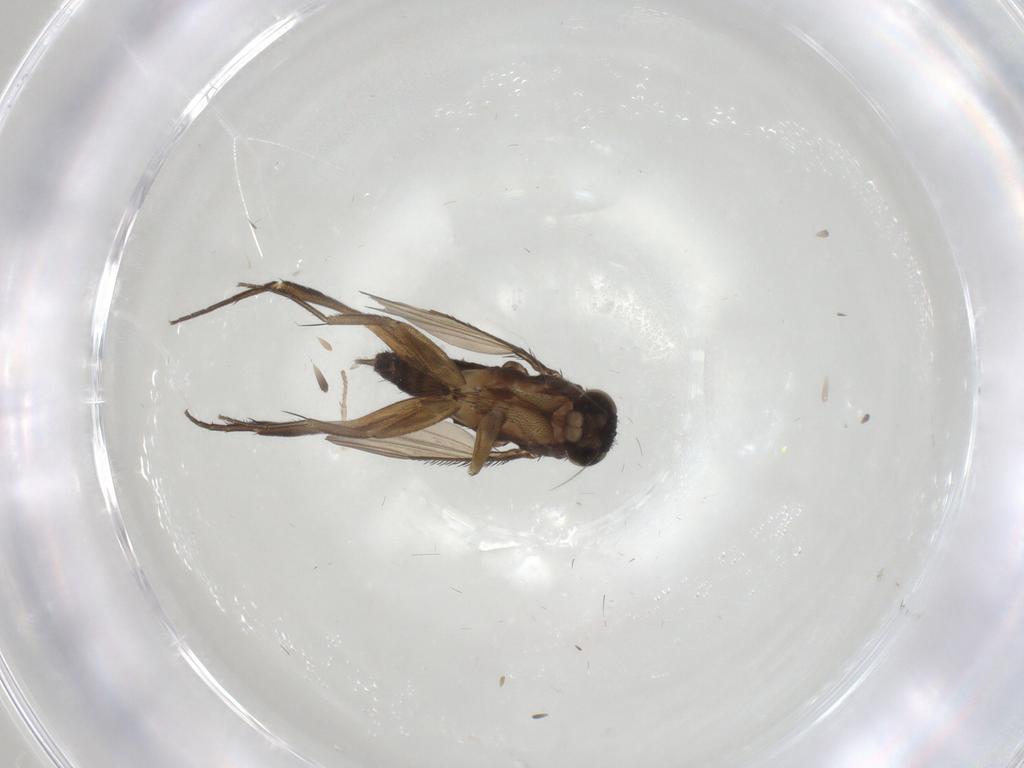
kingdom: Animalia
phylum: Arthropoda
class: Insecta
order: Diptera
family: Phoridae
